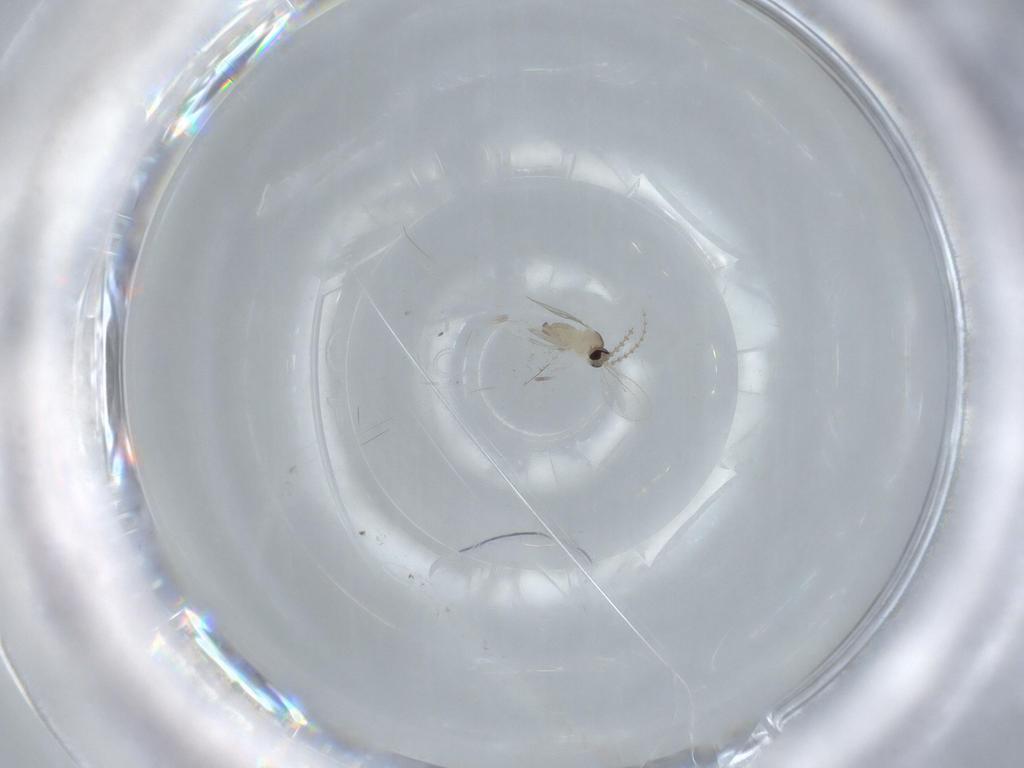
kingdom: Animalia
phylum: Arthropoda
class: Insecta
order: Diptera
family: Cecidomyiidae
